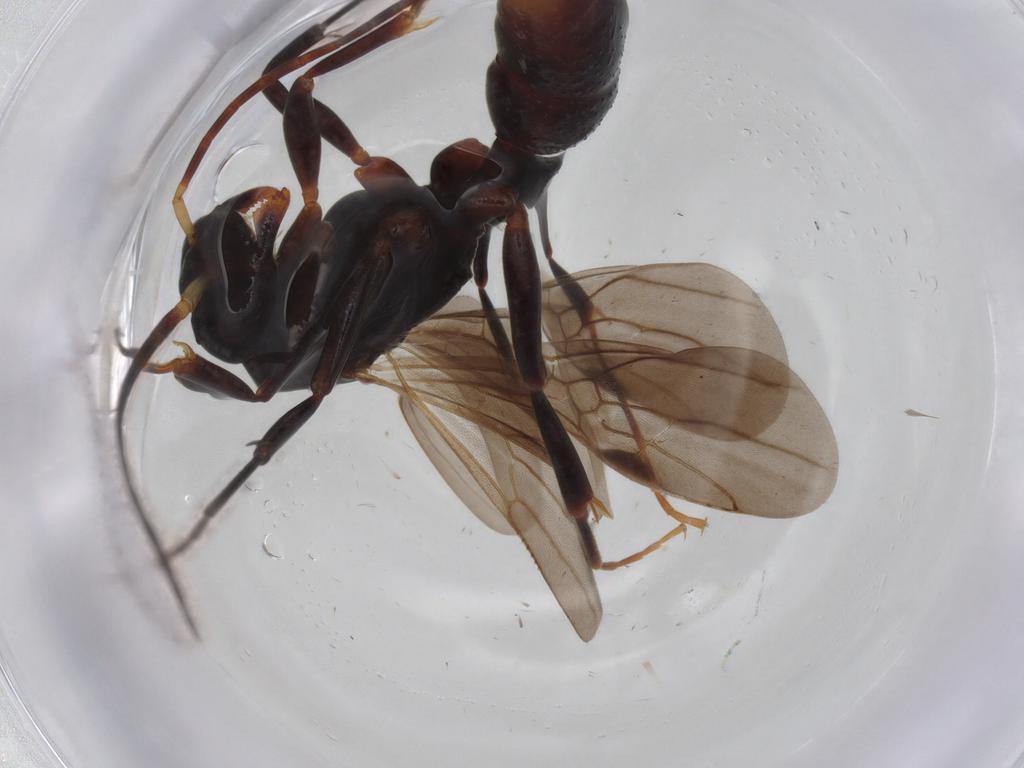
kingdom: Animalia
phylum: Arthropoda
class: Insecta
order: Hymenoptera
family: Formicidae
